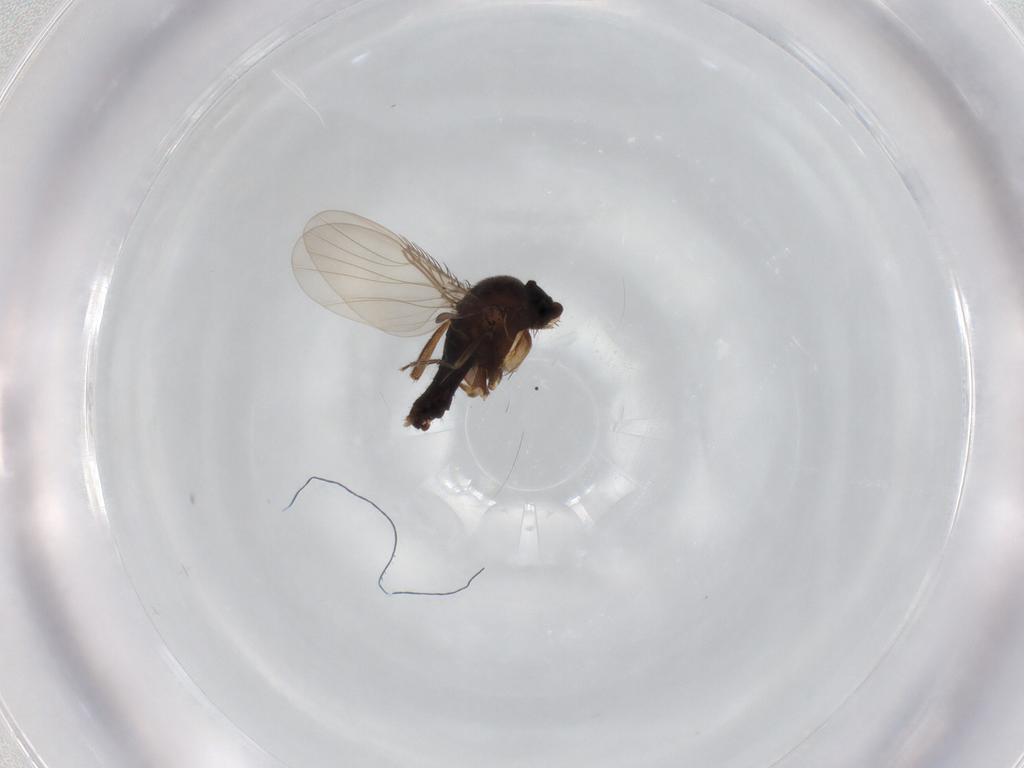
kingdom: Animalia
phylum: Arthropoda
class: Insecta
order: Diptera
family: Phoridae
